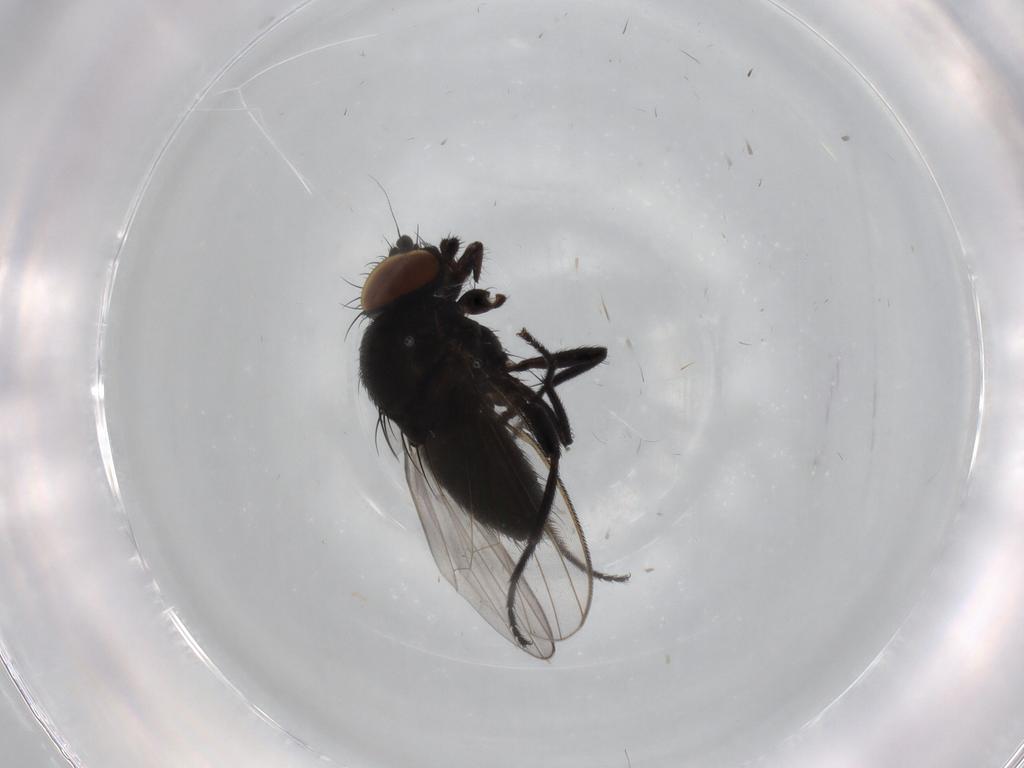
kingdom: Animalia
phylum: Arthropoda
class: Insecta
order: Diptera
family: Milichiidae
